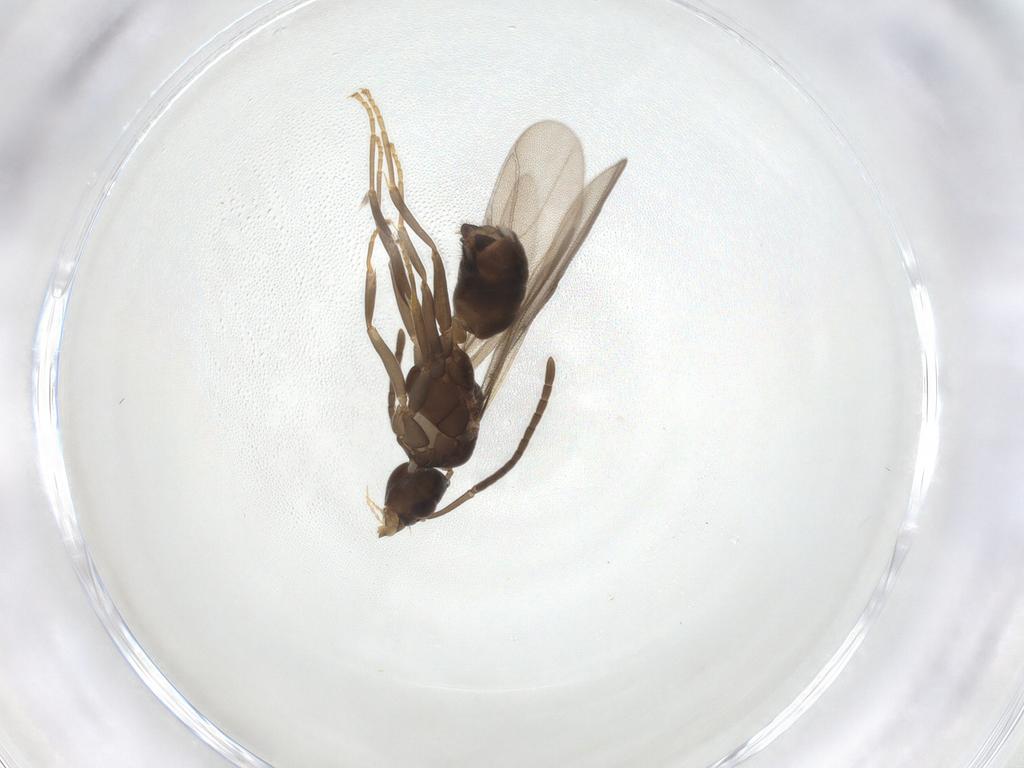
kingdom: Animalia
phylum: Arthropoda
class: Insecta
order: Hymenoptera
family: Formicidae
